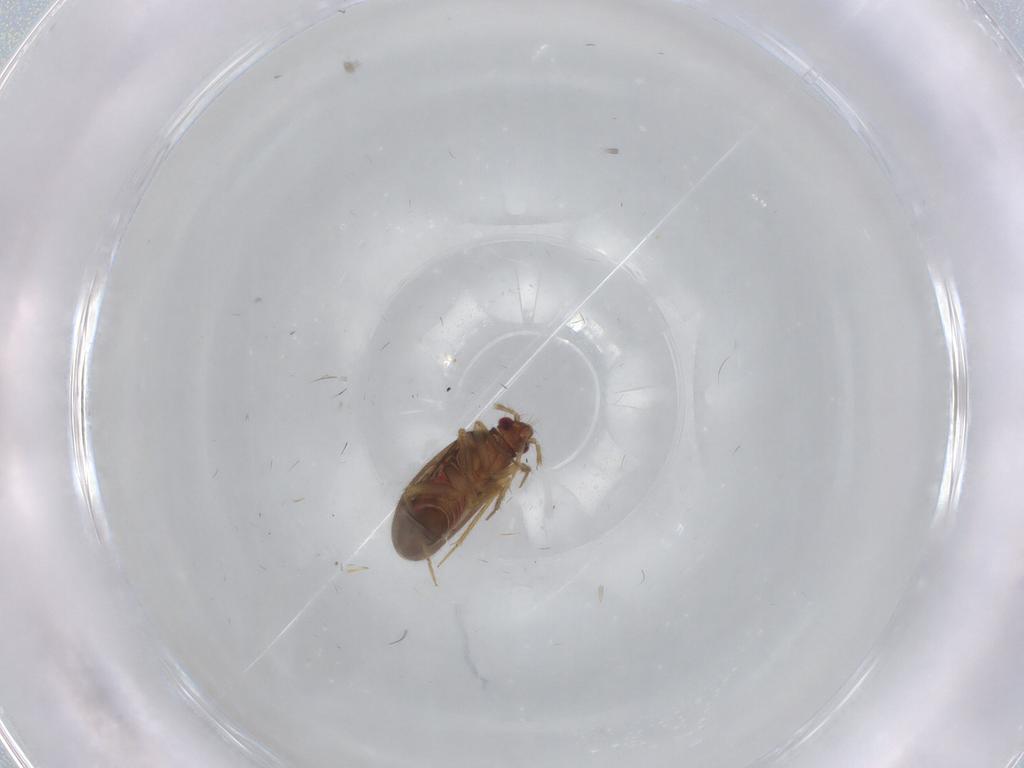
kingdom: Animalia
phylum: Arthropoda
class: Insecta
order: Hemiptera
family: Ceratocombidae
